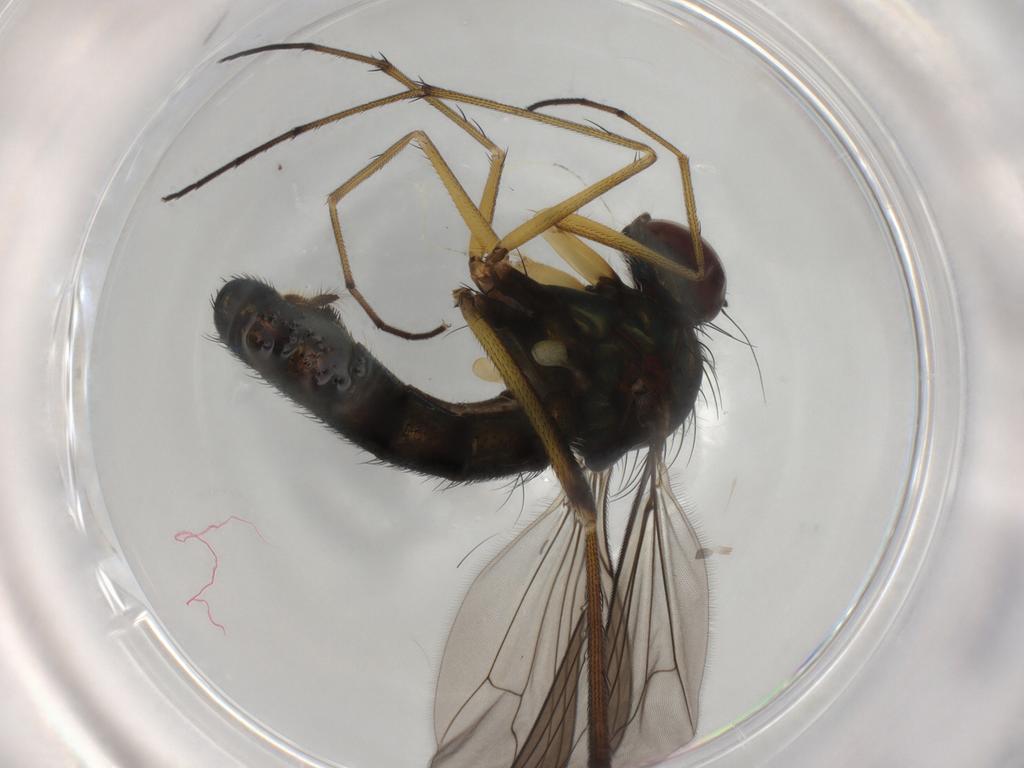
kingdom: Animalia
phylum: Arthropoda
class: Insecta
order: Diptera
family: Dolichopodidae
